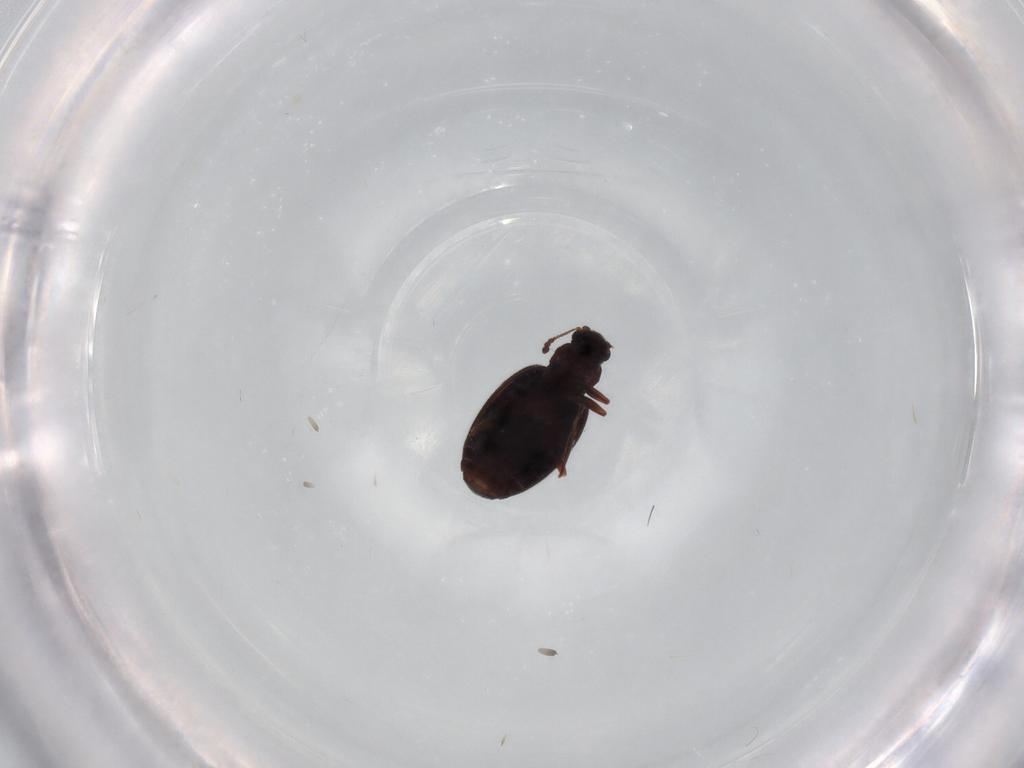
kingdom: Animalia
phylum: Arthropoda
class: Insecta
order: Coleoptera
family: Latridiidae
